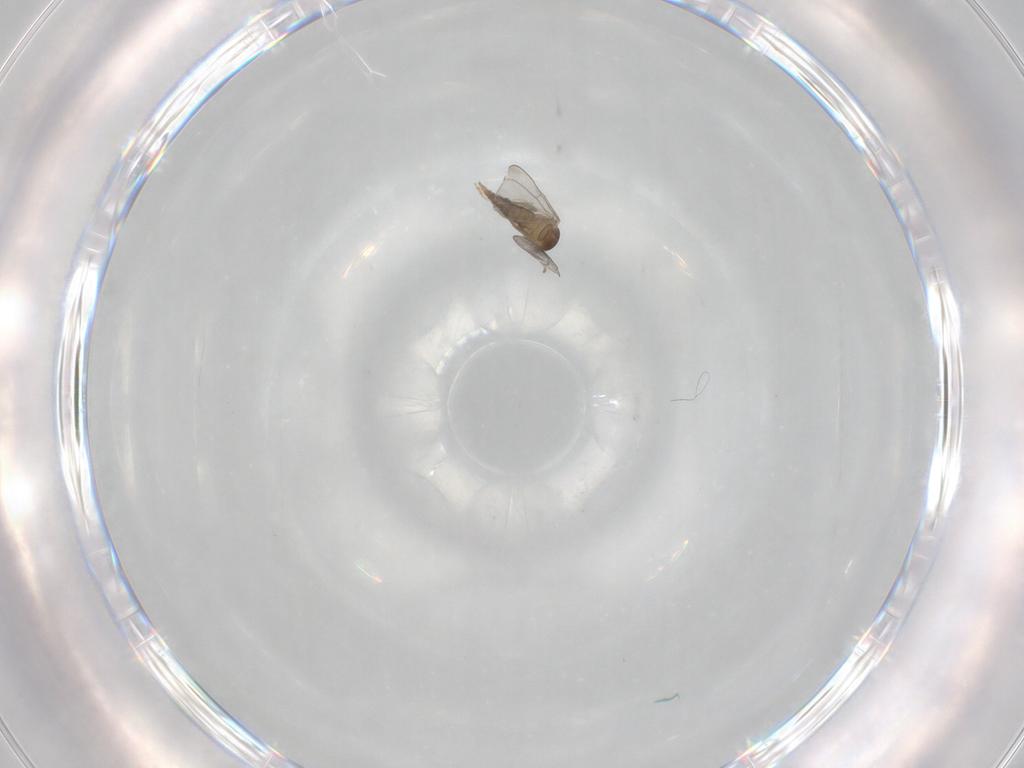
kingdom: Animalia
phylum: Arthropoda
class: Insecta
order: Diptera
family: Cecidomyiidae
